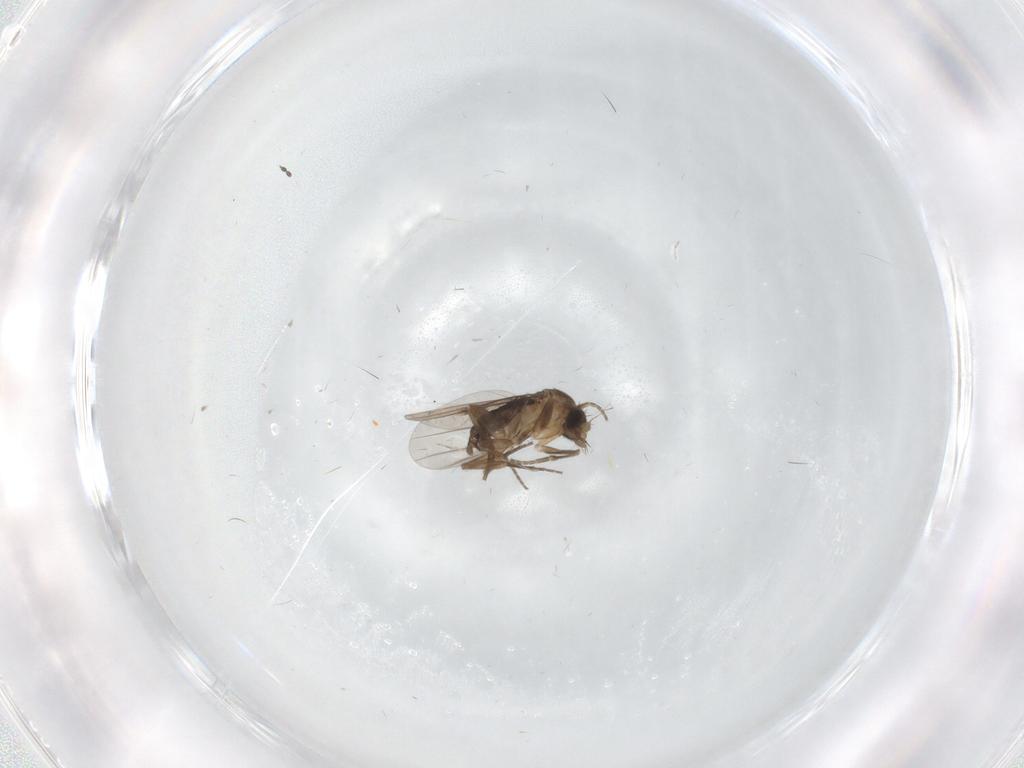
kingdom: Animalia
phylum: Arthropoda
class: Insecta
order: Diptera
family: Phoridae
